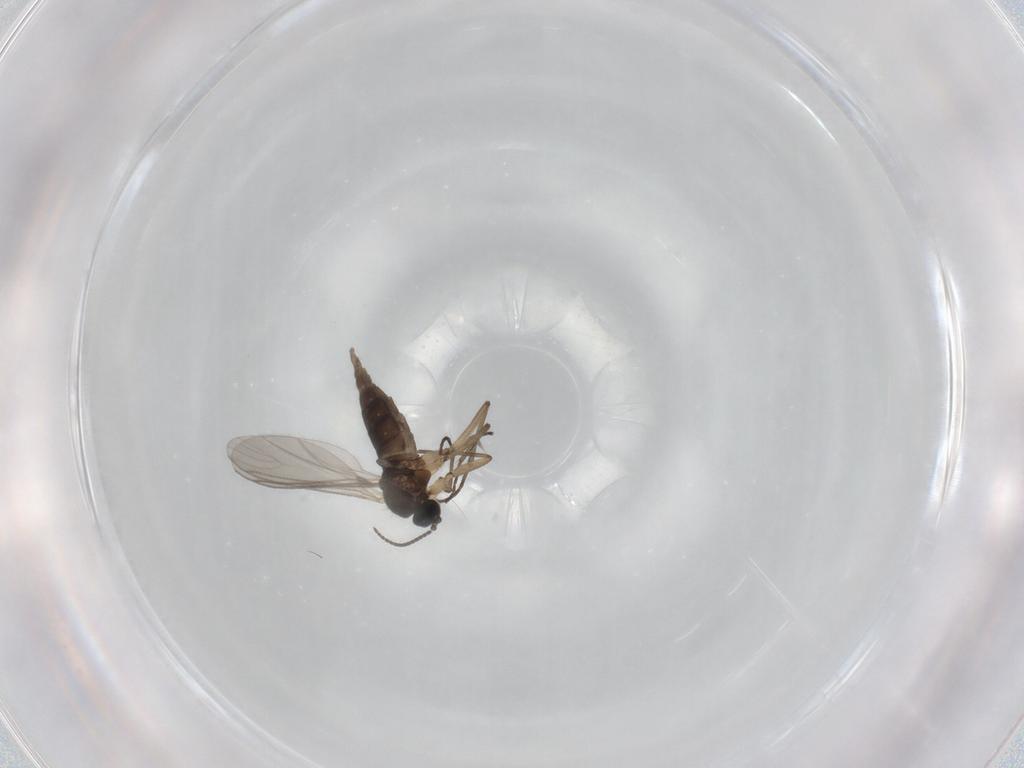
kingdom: Animalia
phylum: Arthropoda
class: Insecta
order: Diptera
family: Sciaridae
